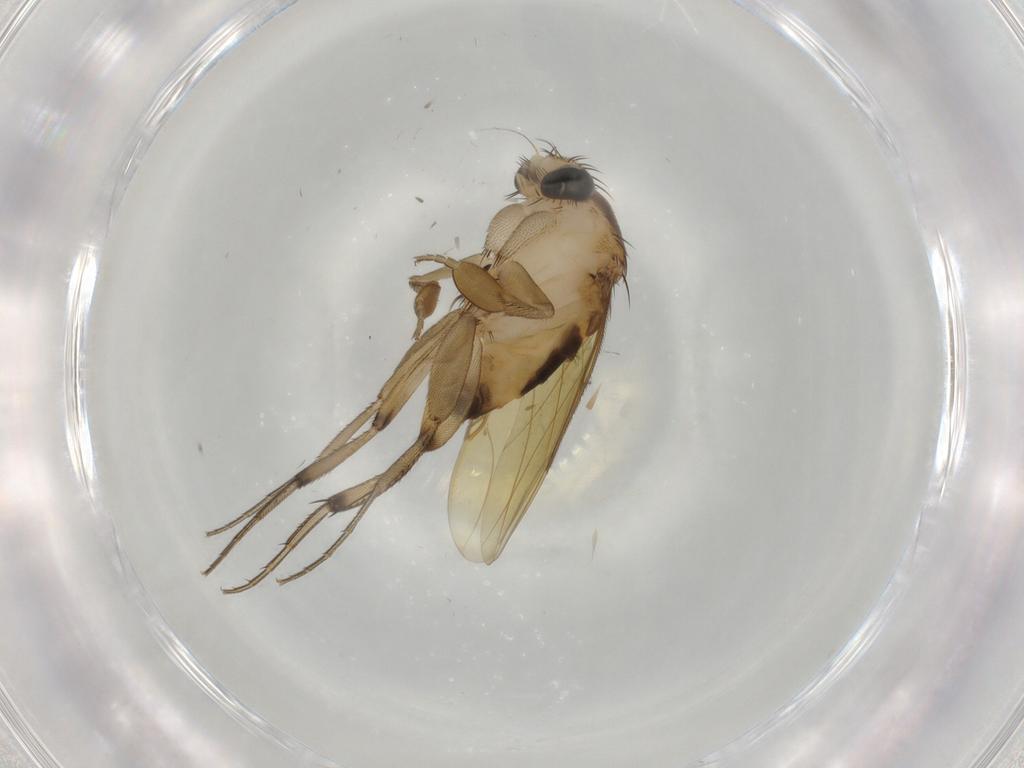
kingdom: Animalia
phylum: Arthropoda
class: Insecta
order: Diptera
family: Phoridae
